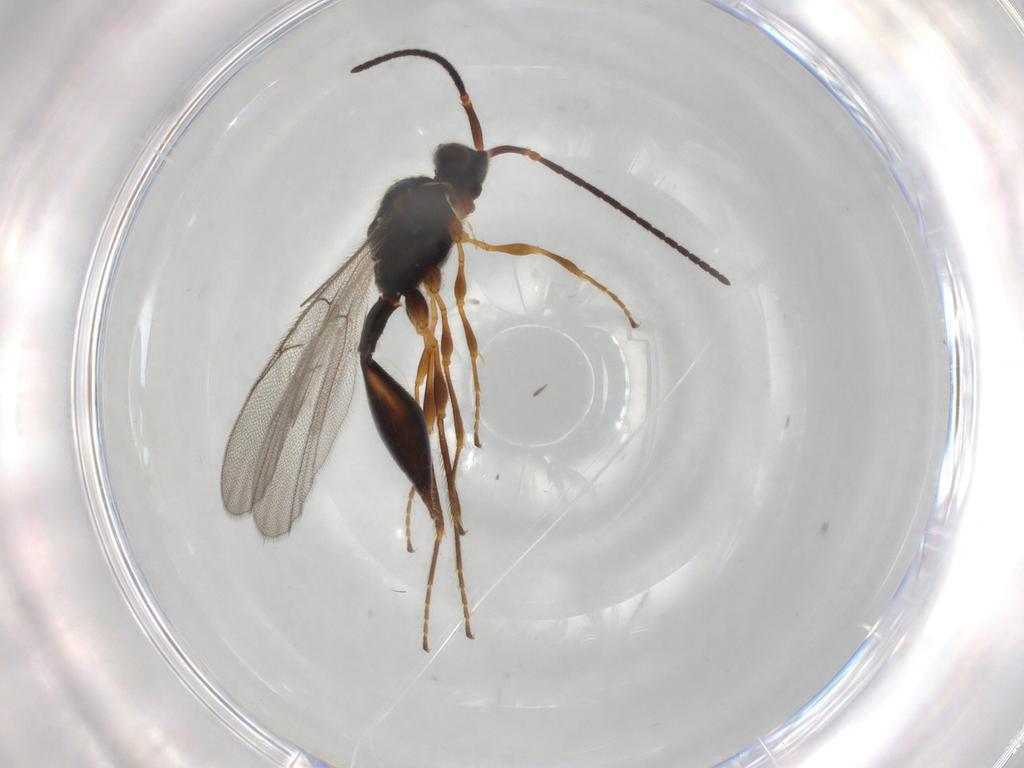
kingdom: Animalia
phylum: Arthropoda
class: Insecta
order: Hymenoptera
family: Diapriidae
